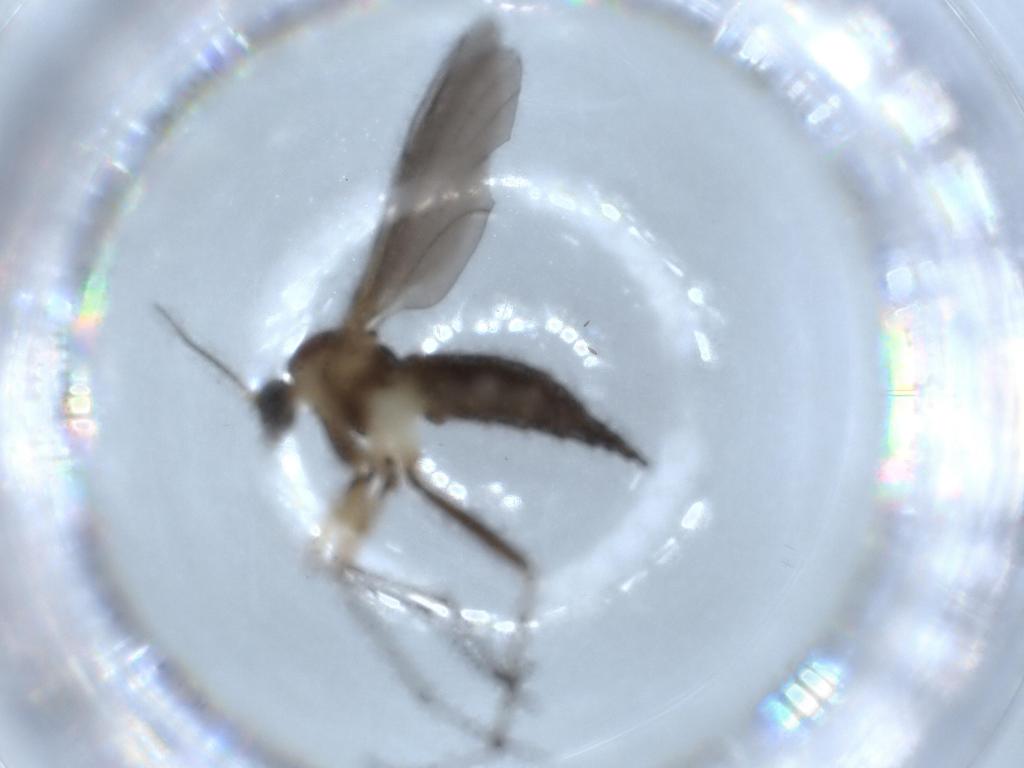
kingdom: Animalia
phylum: Arthropoda
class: Insecta
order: Diptera
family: Sciaridae
